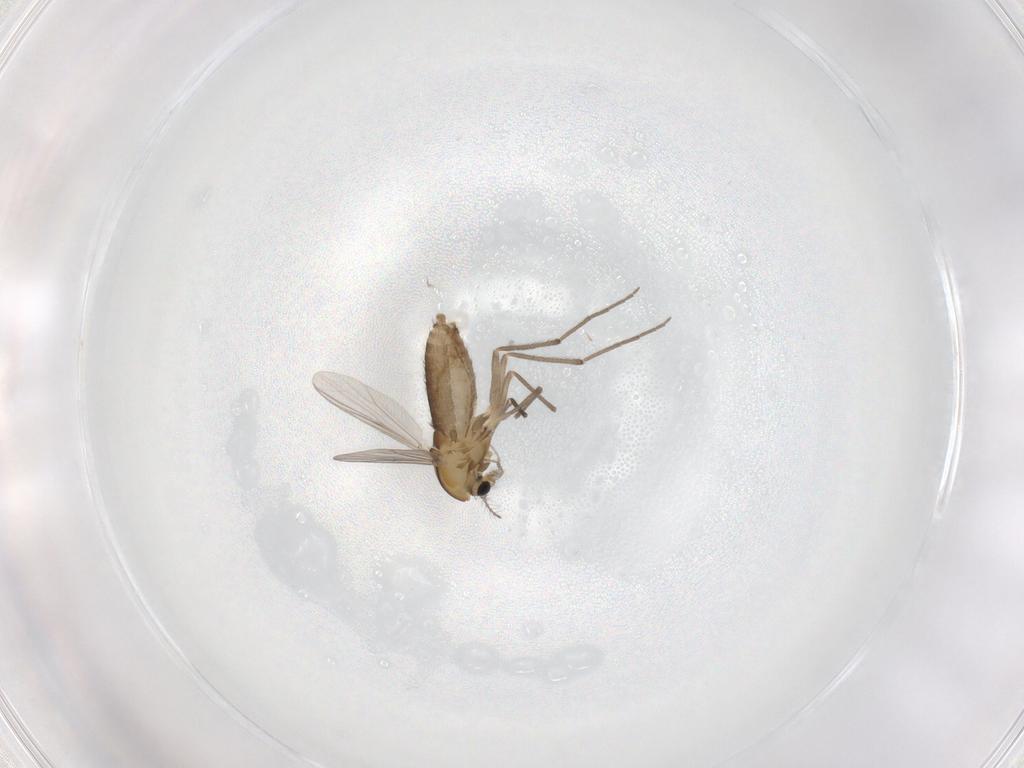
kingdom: Animalia
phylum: Arthropoda
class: Insecta
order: Diptera
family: Chironomidae
